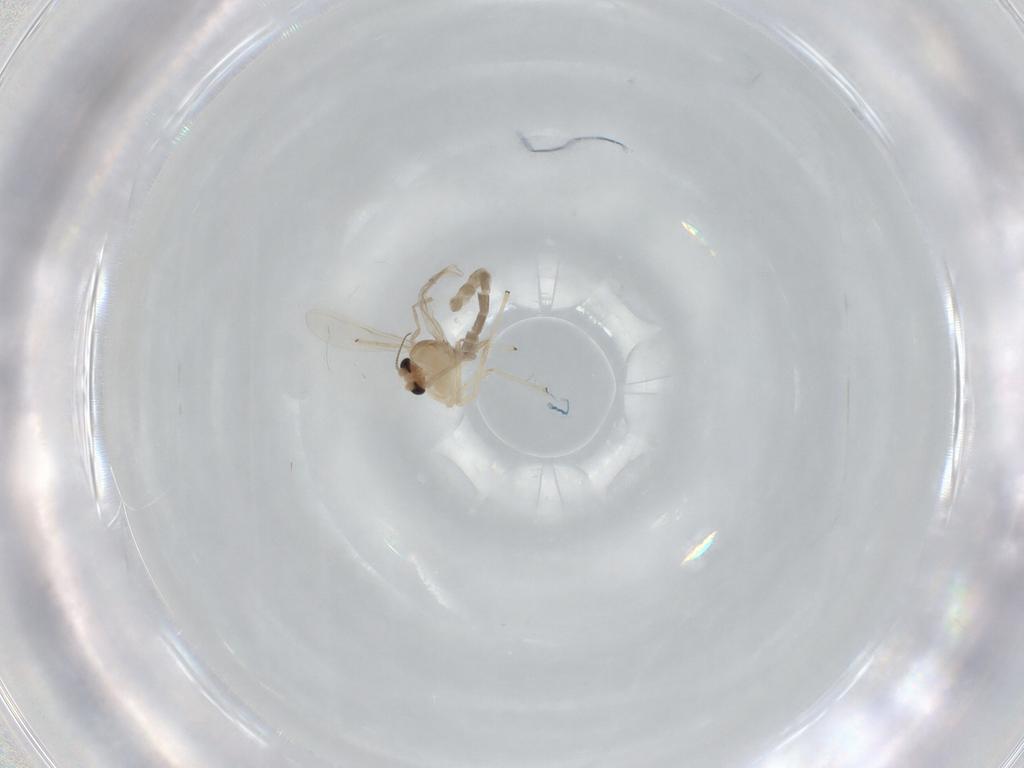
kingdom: Animalia
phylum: Arthropoda
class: Insecta
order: Diptera
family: Chironomidae
